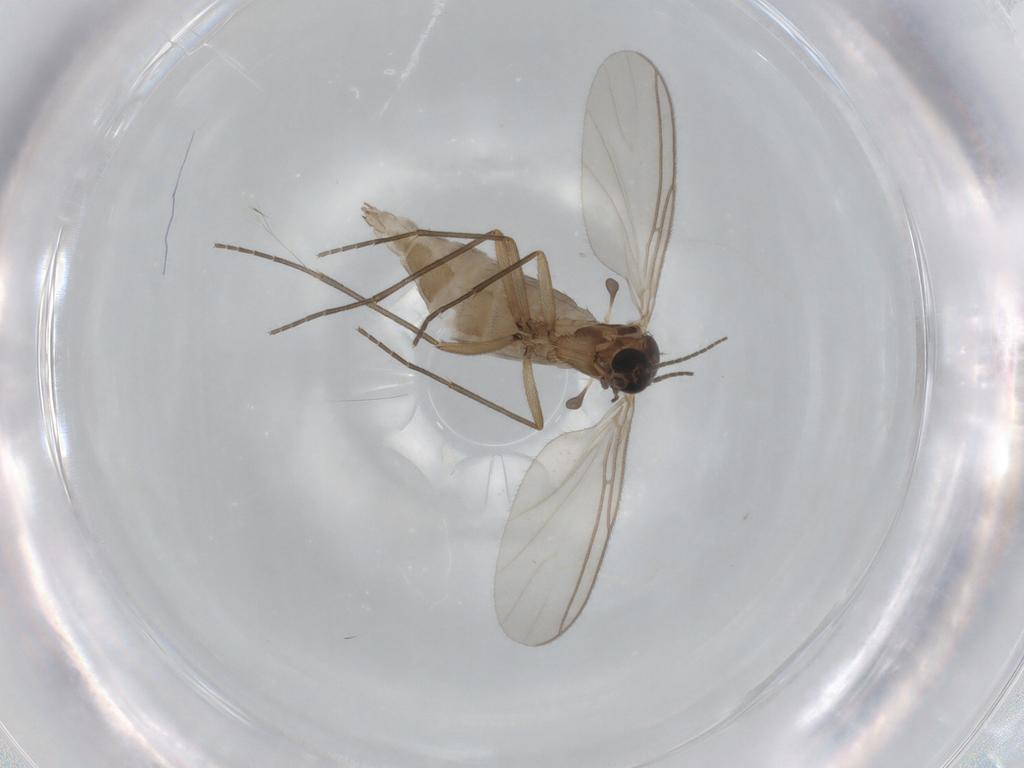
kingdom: Animalia
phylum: Arthropoda
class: Insecta
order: Diptera
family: Sciaridae
